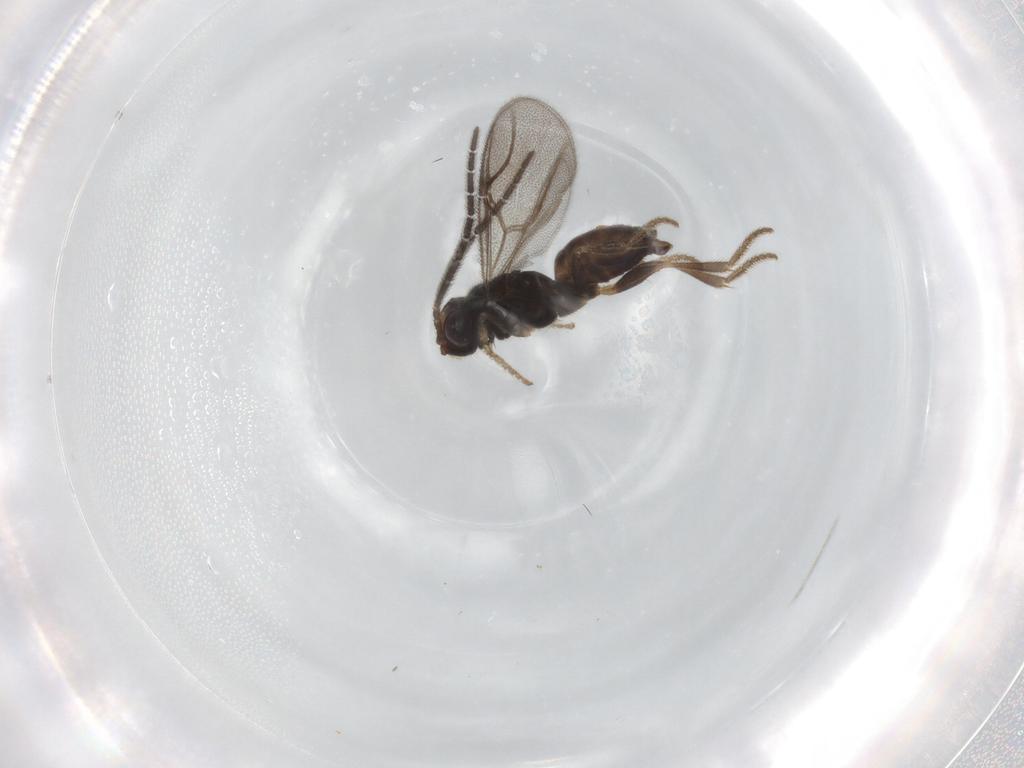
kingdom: Animalia
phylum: Arthropoda
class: Insecta
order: Hymenoptera
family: Dryinidae
